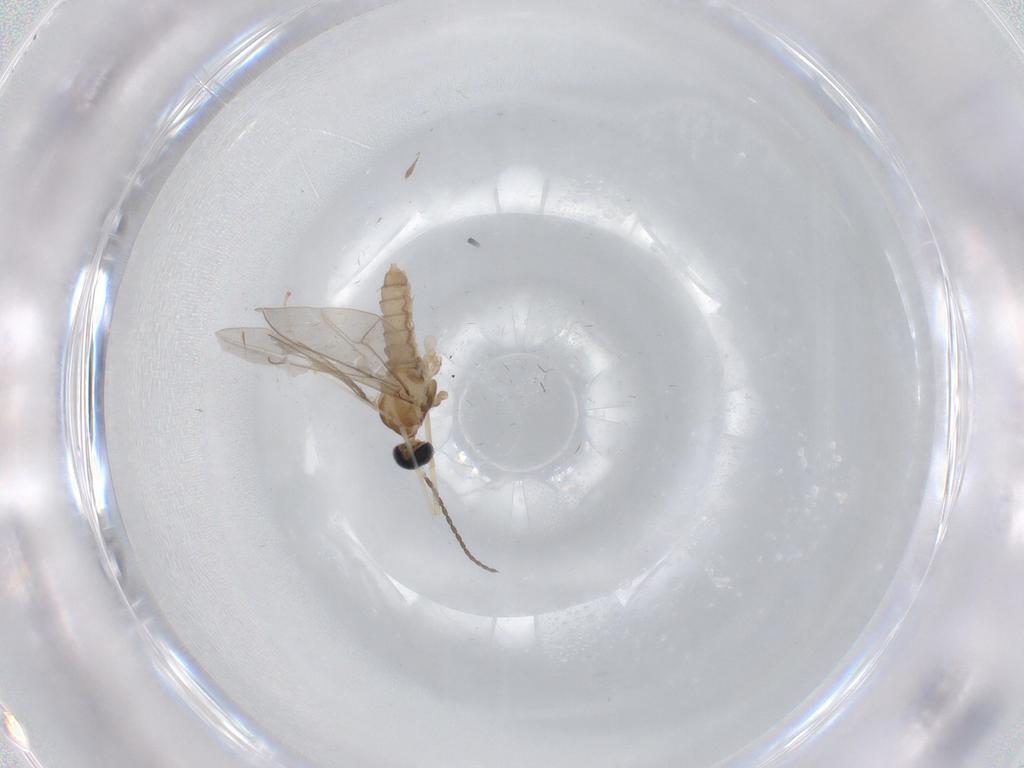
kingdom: Animalia
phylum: Arthropoda
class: Insecta
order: Diptera
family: Cecidomyiidae
